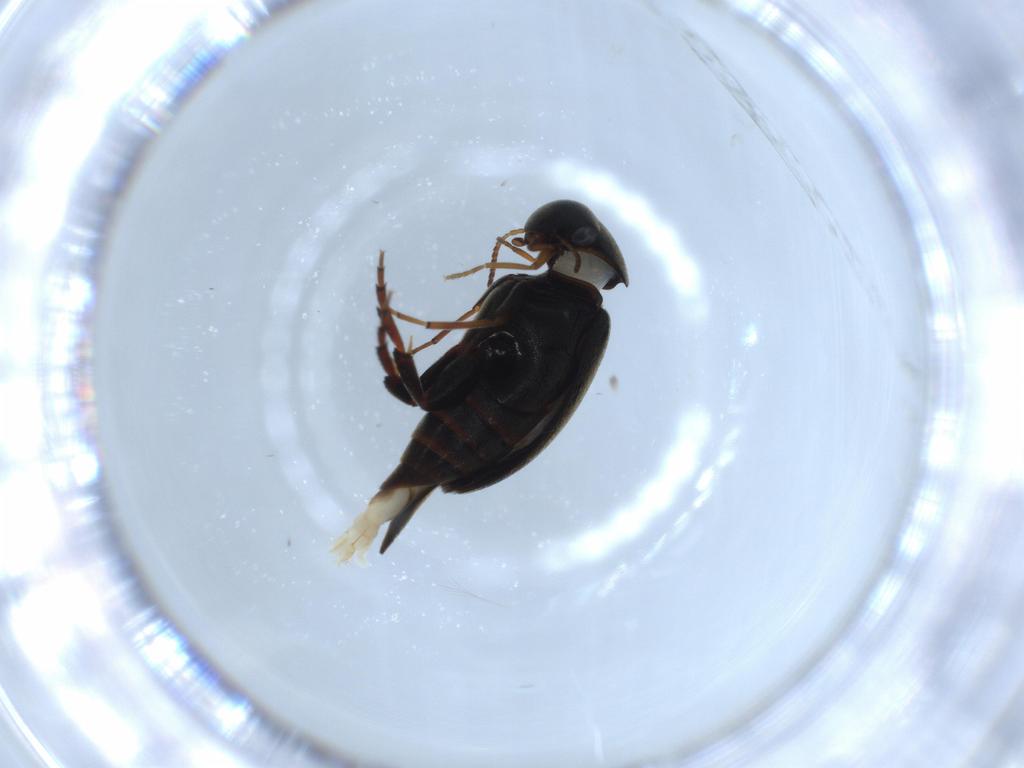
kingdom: Animalia
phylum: Arthropoda
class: Insecta
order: Coleoptera
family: Mordellidae
